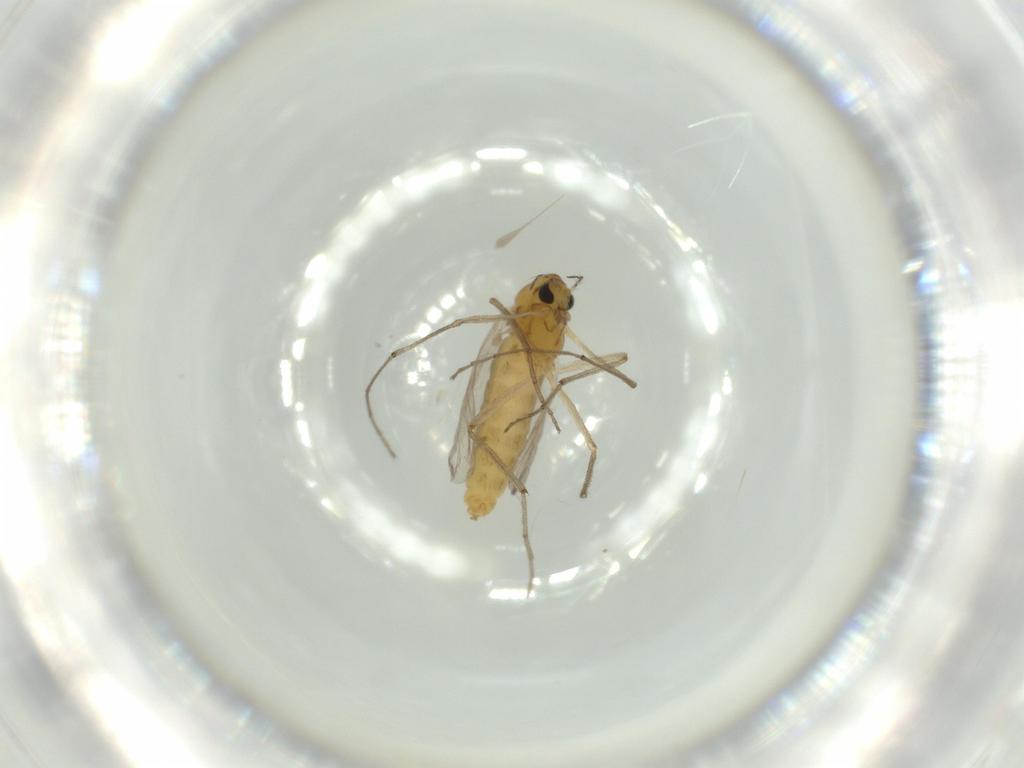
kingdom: Animalia
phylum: Arthropoda
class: Insecta
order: Diptera
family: Chironomidae
